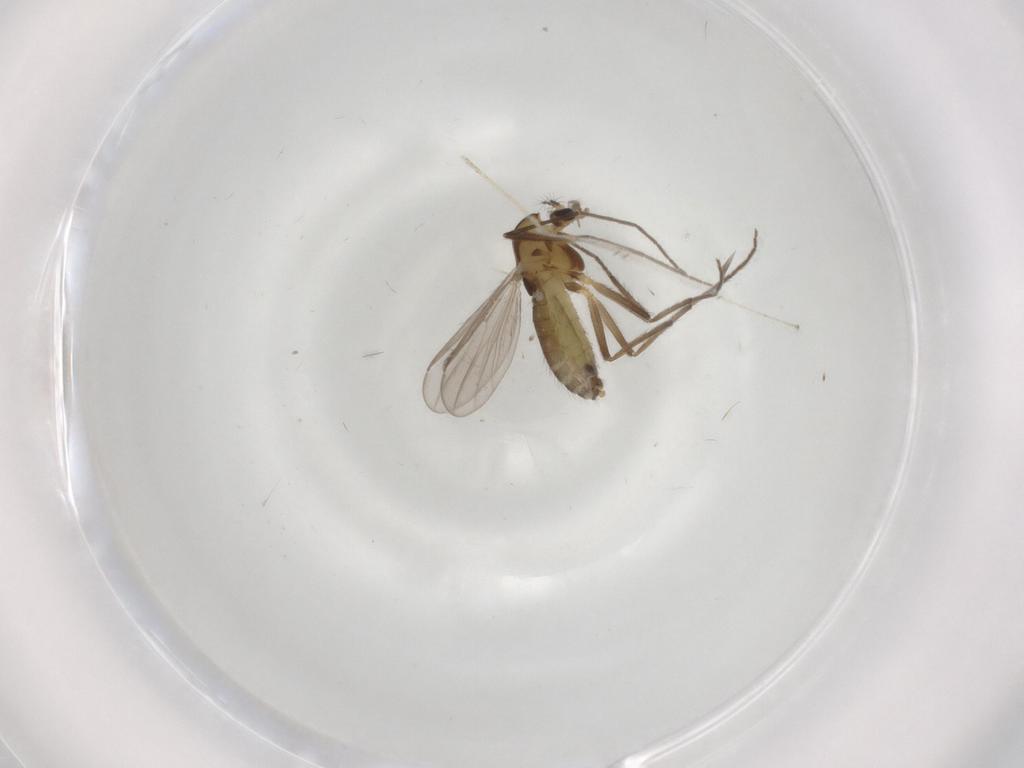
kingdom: Animalia
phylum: Arthropoda
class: Insecta
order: Diptera
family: Chironomidae
